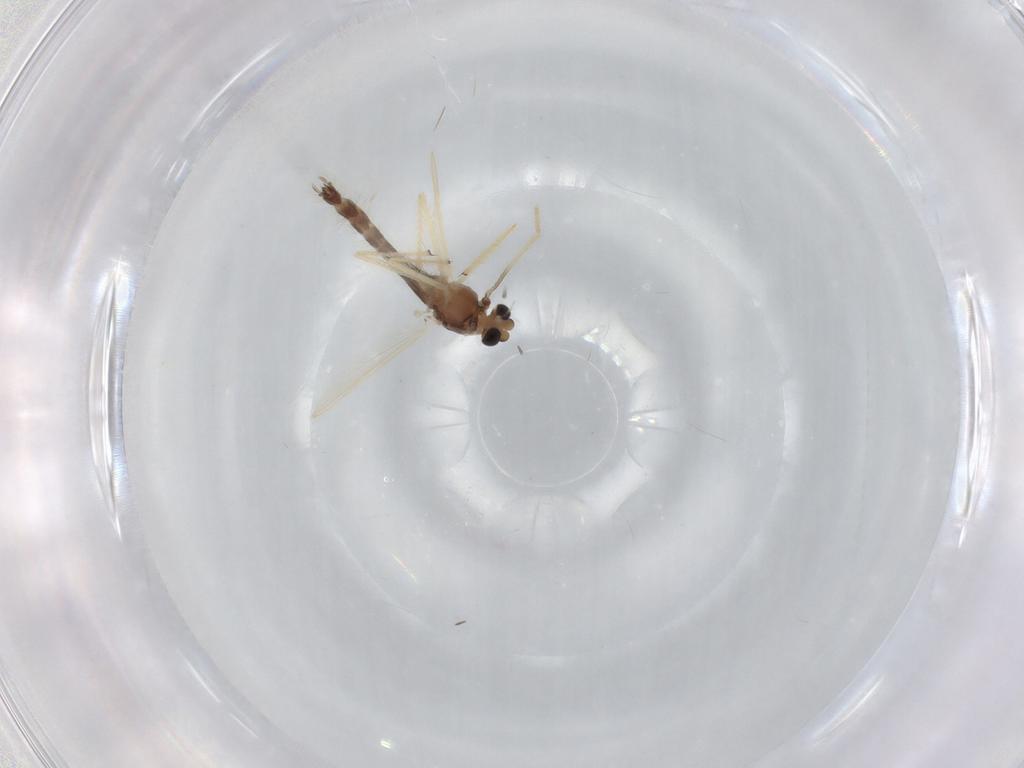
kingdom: Animalia
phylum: Arthropoda
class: Insecta
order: Diptera
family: Chironomidae
